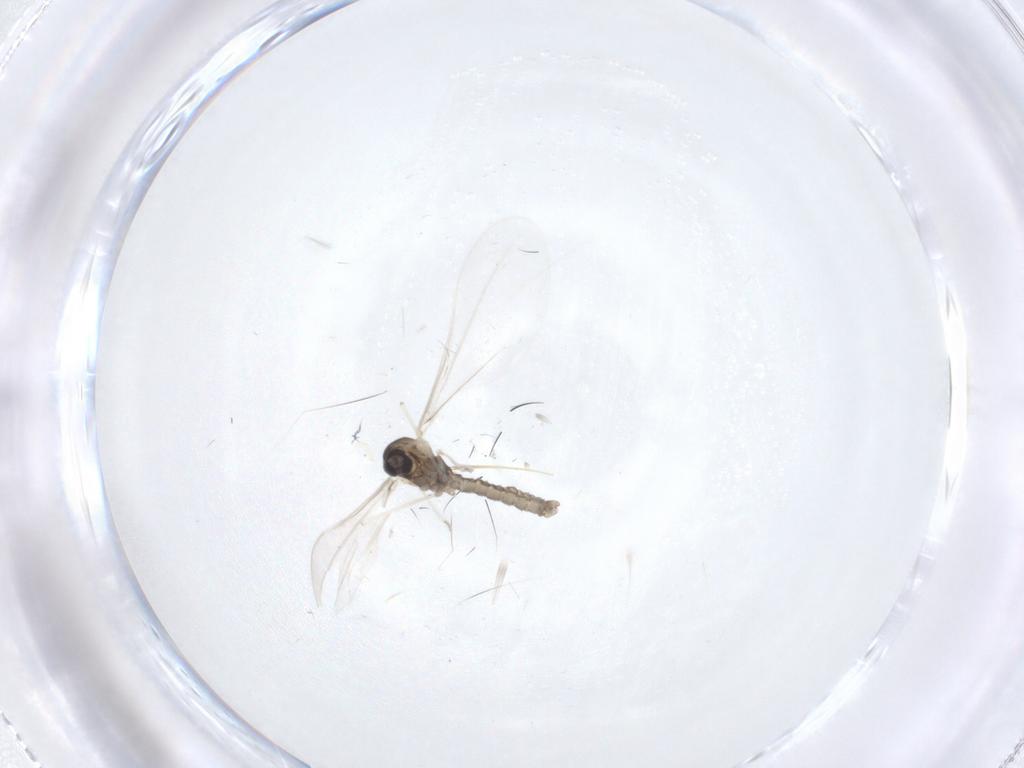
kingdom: Animalia
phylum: Arthropoda
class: Insecta
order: Diptera
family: Cecidomyiidae
